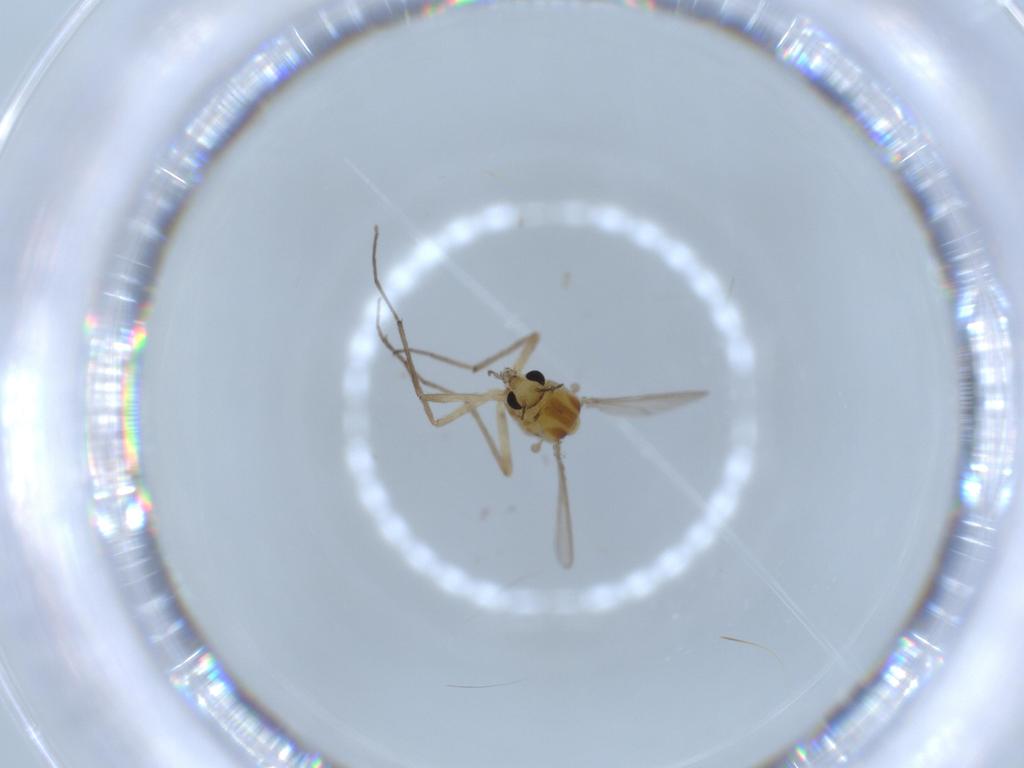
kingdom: Animalia
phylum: Arthropoda
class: Insecta
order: Diptera
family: Chironomidae
